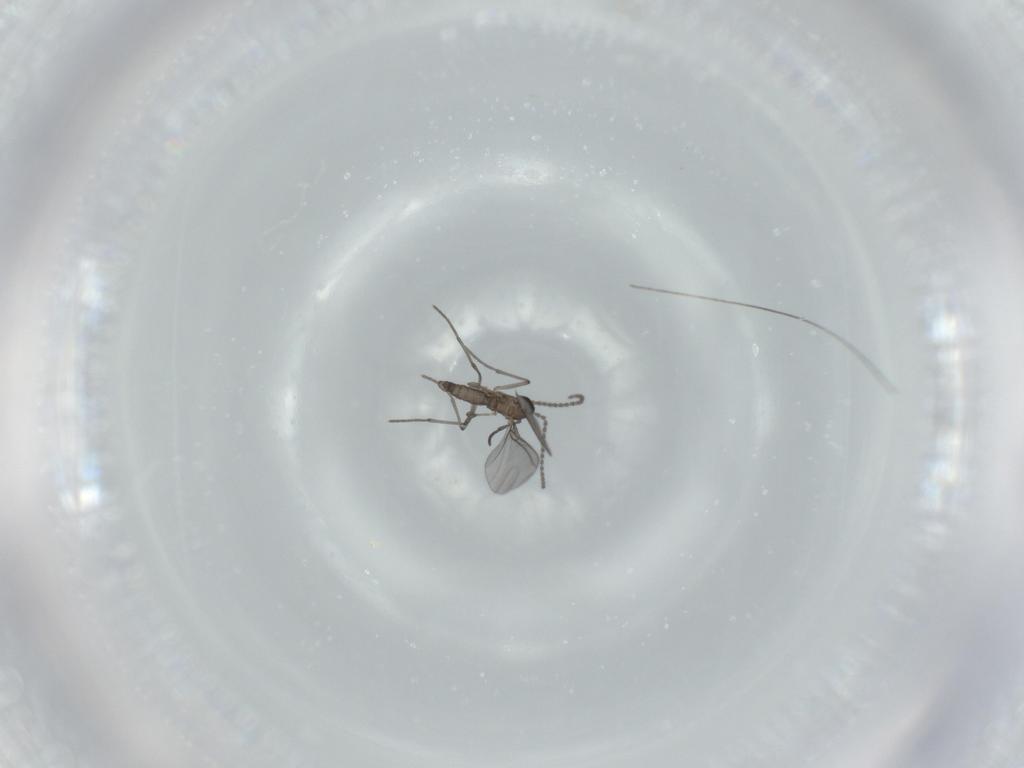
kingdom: Animalia
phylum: Arthropoda
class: Insecta
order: Diptera
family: Sciaridae
